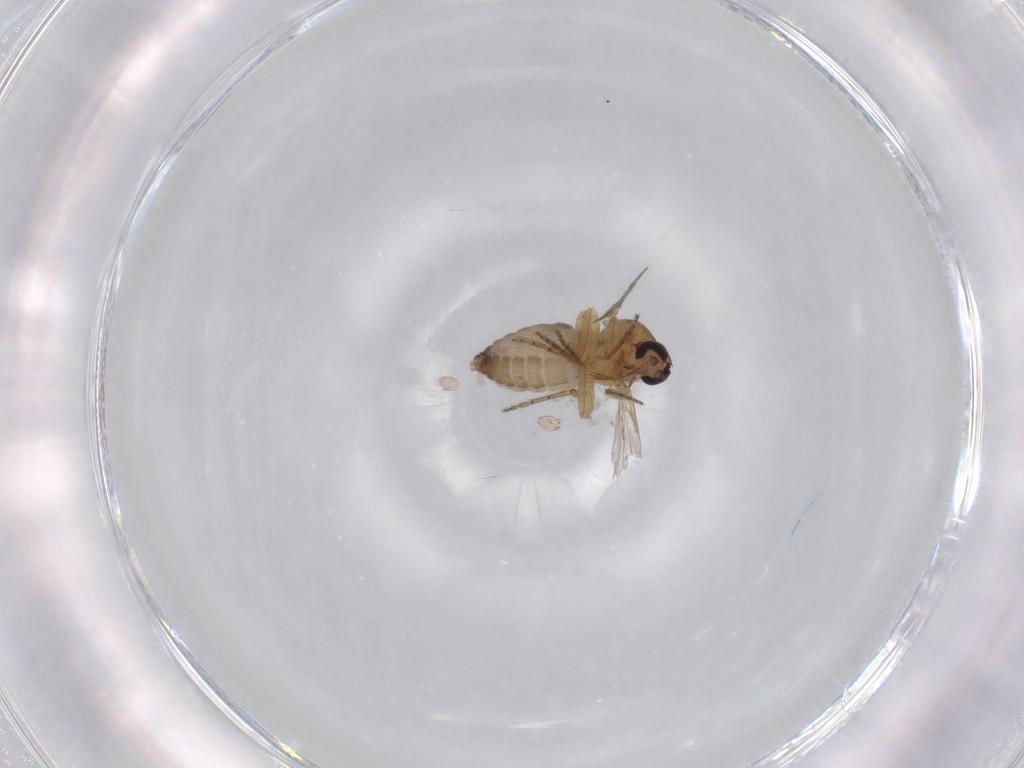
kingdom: Animalia
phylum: Arthropoda
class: Insecta
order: Diptera
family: Ceratopogonidae
